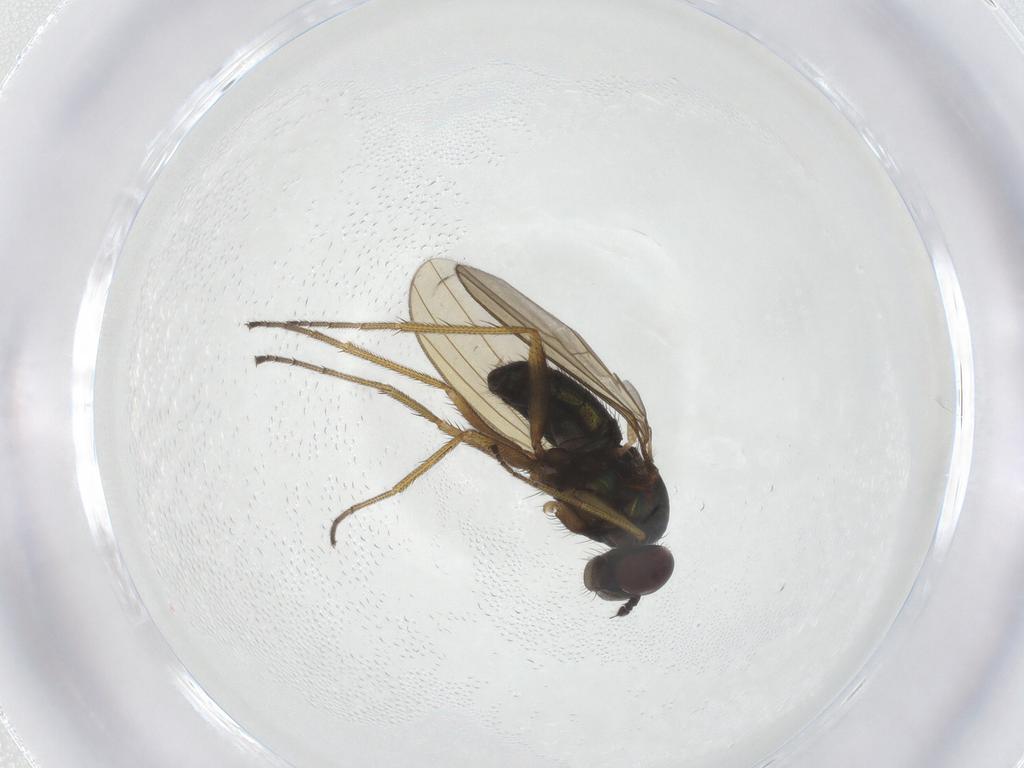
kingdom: Animalia
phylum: Arthropoda
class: Insecta
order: Diptera
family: Dolichopodidae
